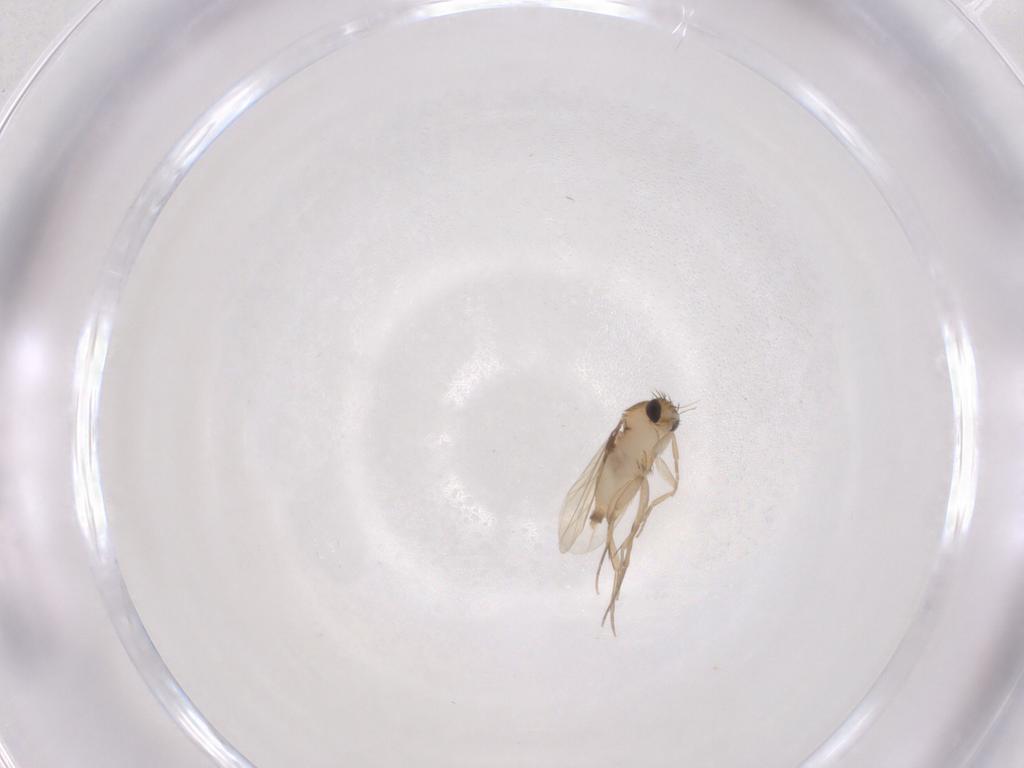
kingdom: Animalia
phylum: Arthropoda
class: Insecta
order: Diptera
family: Phoridae
